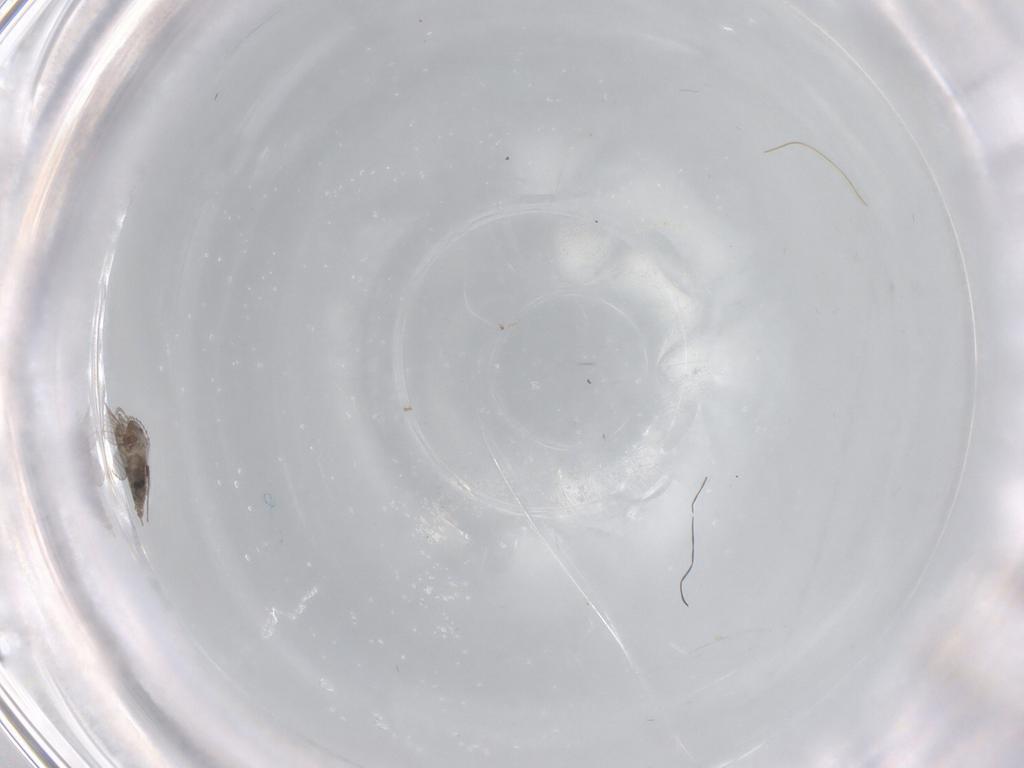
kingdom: Animalia
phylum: Arthropoda
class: Insecta
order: Diptera
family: Psychodidae
